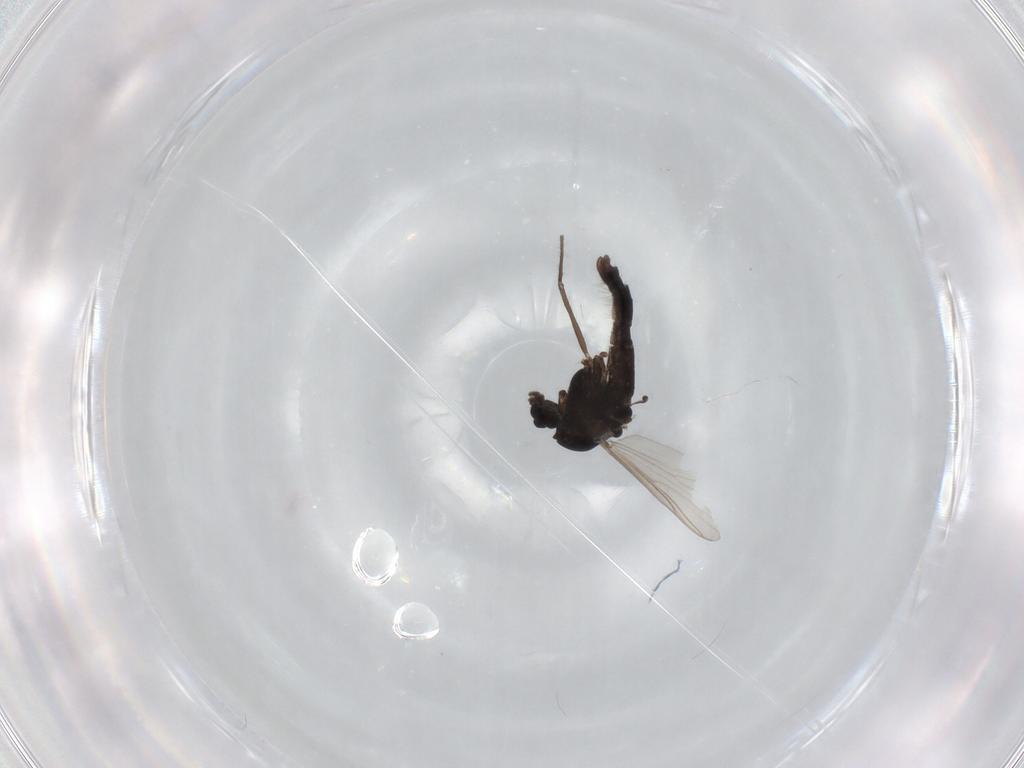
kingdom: Animalia
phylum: Arthropoda
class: Insecta
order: Diptera
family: Chironomidae
